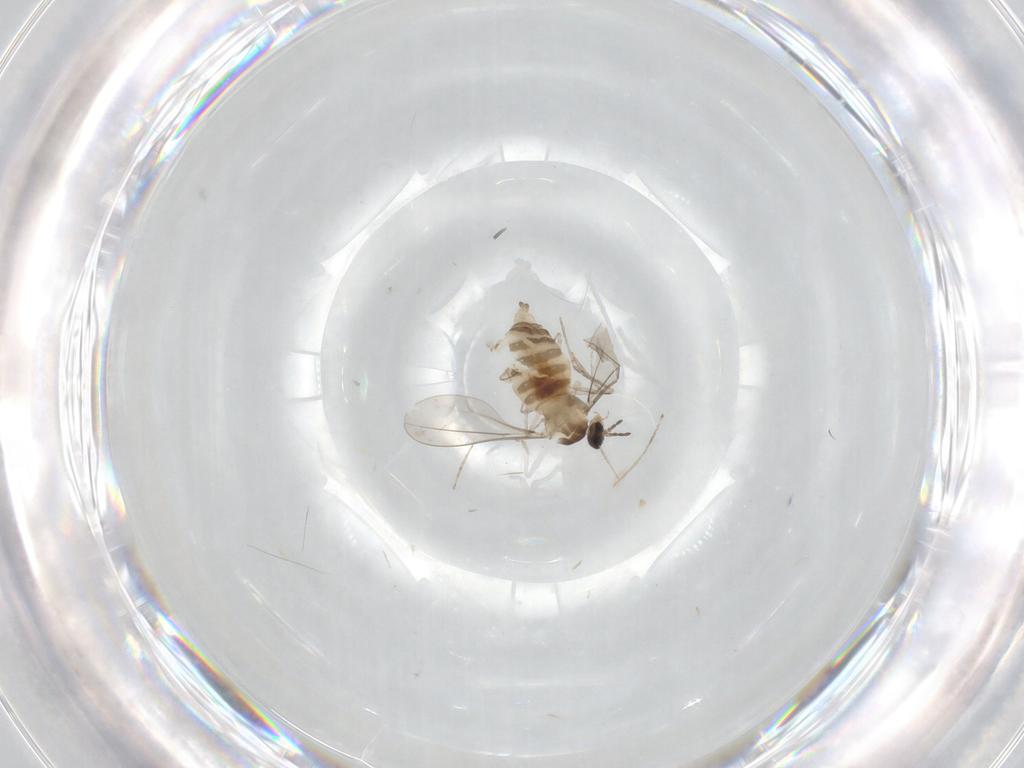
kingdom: Animalia
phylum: Arthropoda
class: Insecta
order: Diptera
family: Cecidomyiidae
